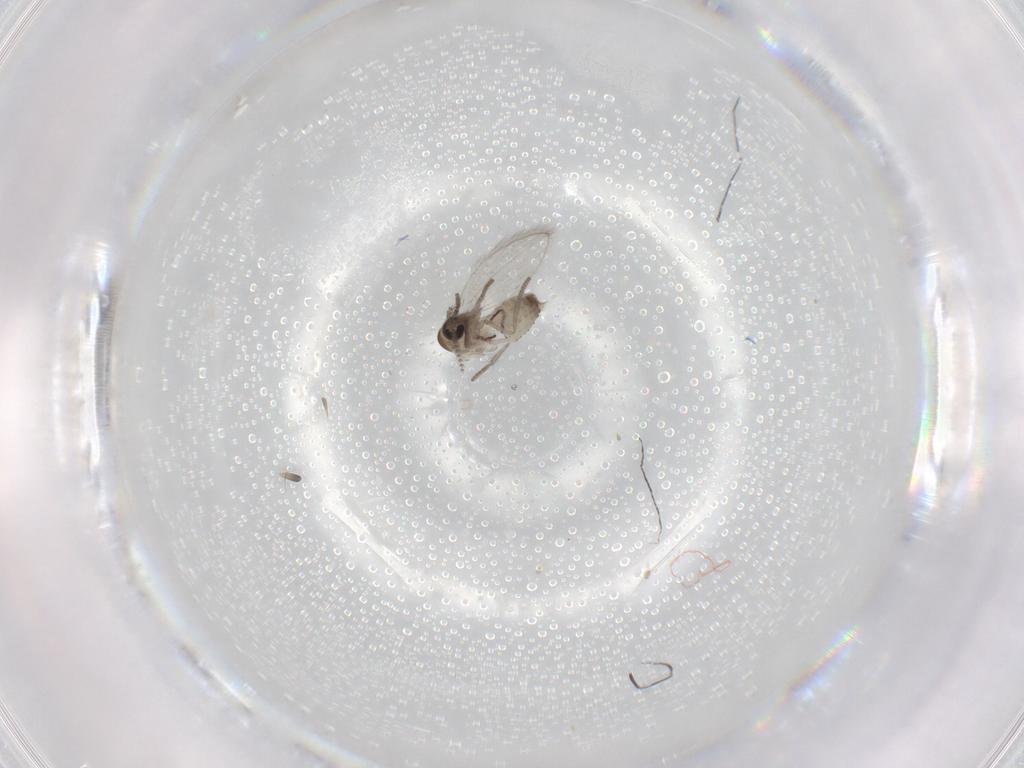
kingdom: Animalia
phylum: Arthropoda
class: Insecta
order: Diptera
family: Psychodidae
